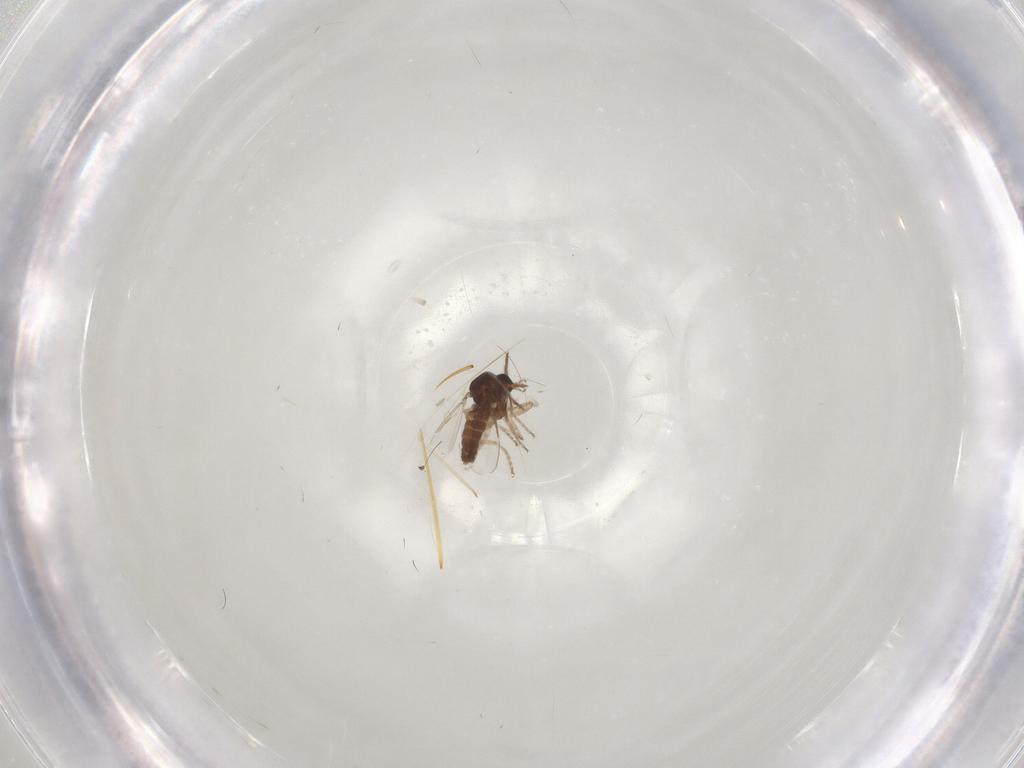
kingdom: Animalia
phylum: Arthropoda
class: Insecta
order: Diptera
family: Ceratopogonidae
